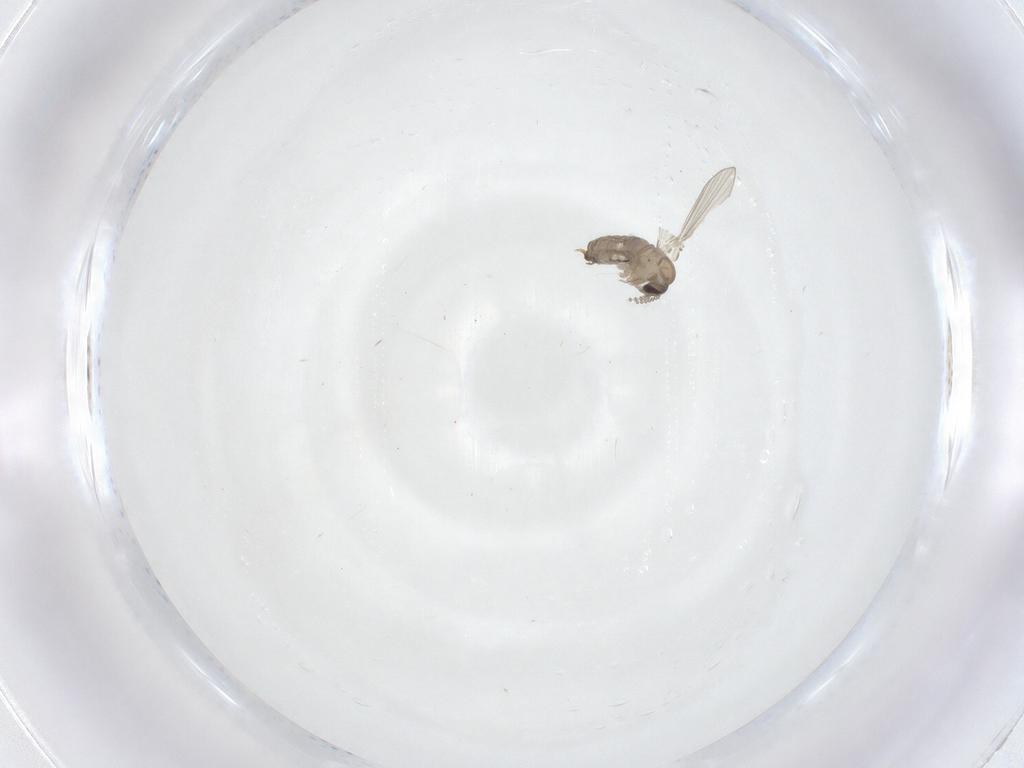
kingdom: Animalia
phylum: Arthropoda
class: Insecta
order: Diptera
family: Psychodidae
